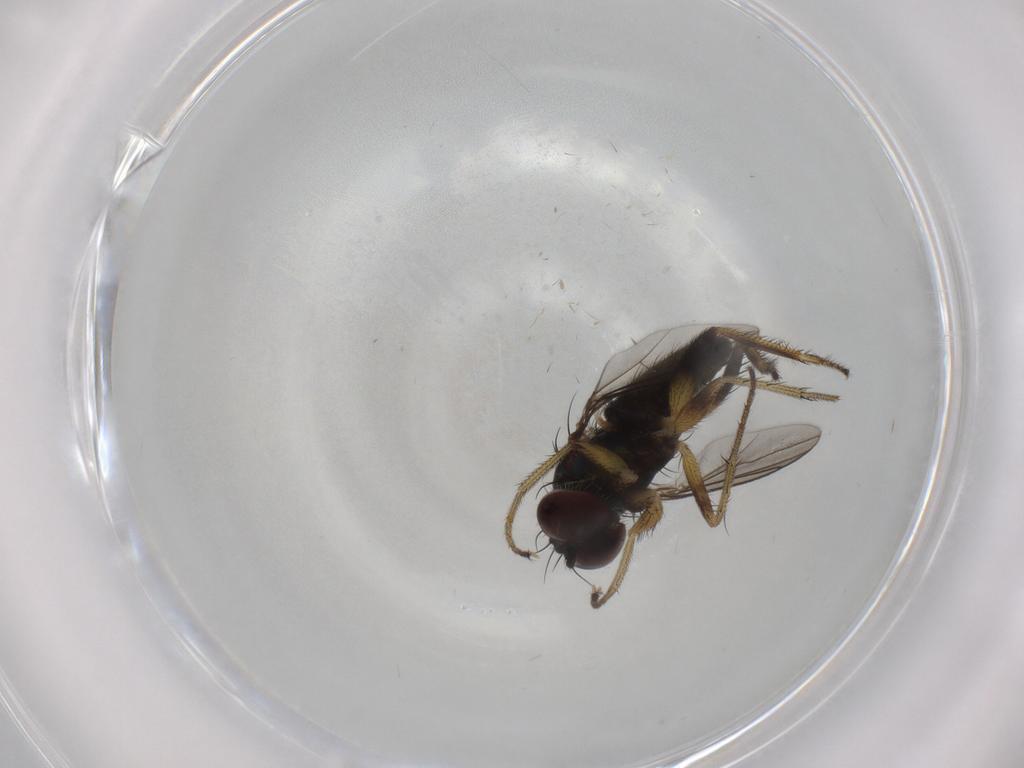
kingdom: Animalia
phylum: Arthropoda
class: Insecta
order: Diptera
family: Dolichopodidae
